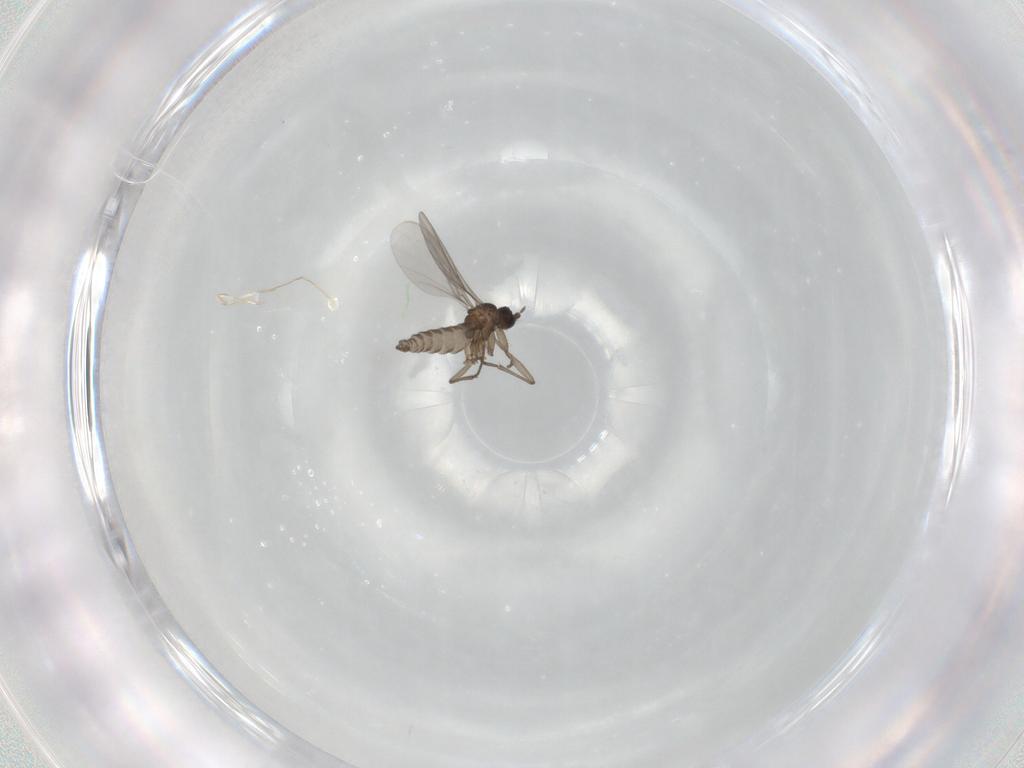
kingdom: Animalia
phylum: Arthropoda
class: Insecta
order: Diptera
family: Sciaridae
